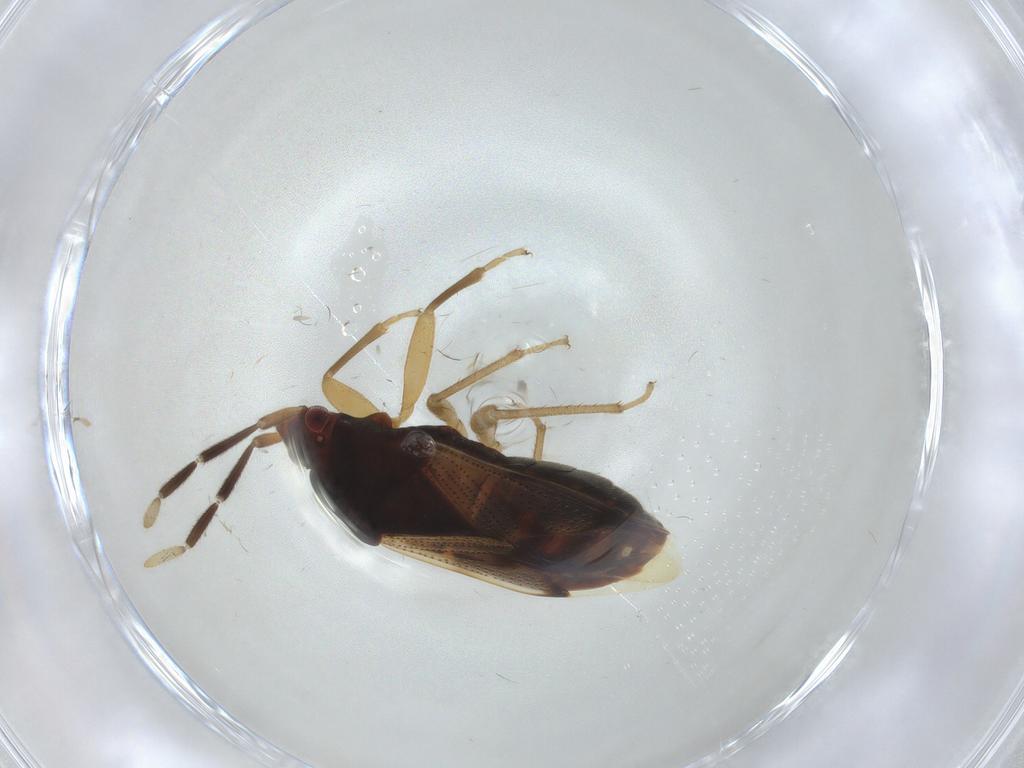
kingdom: Animalia
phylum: Arthropoda
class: Insecta
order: Hemiptera
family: Rhyparochromidae
